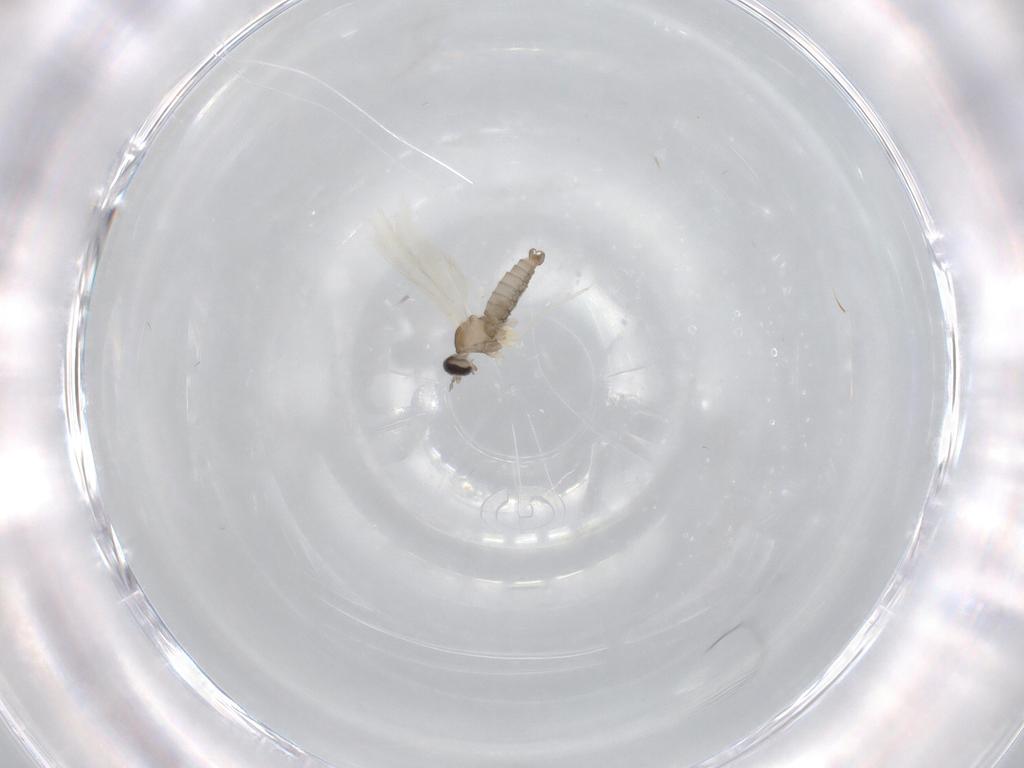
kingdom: Animalia
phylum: Arthropoda
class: Insecta
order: Diptera
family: Cecidomyiidae
